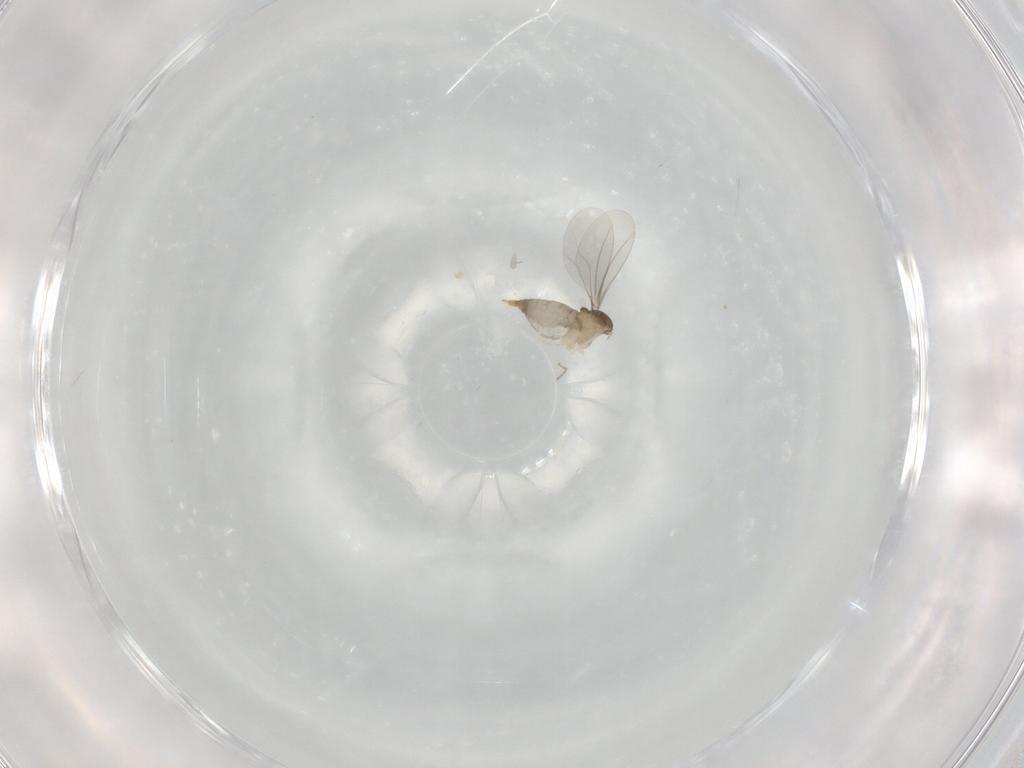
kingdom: Animalia
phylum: Arthropoda
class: Insecta
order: Diptera
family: Cecidomyiidae
